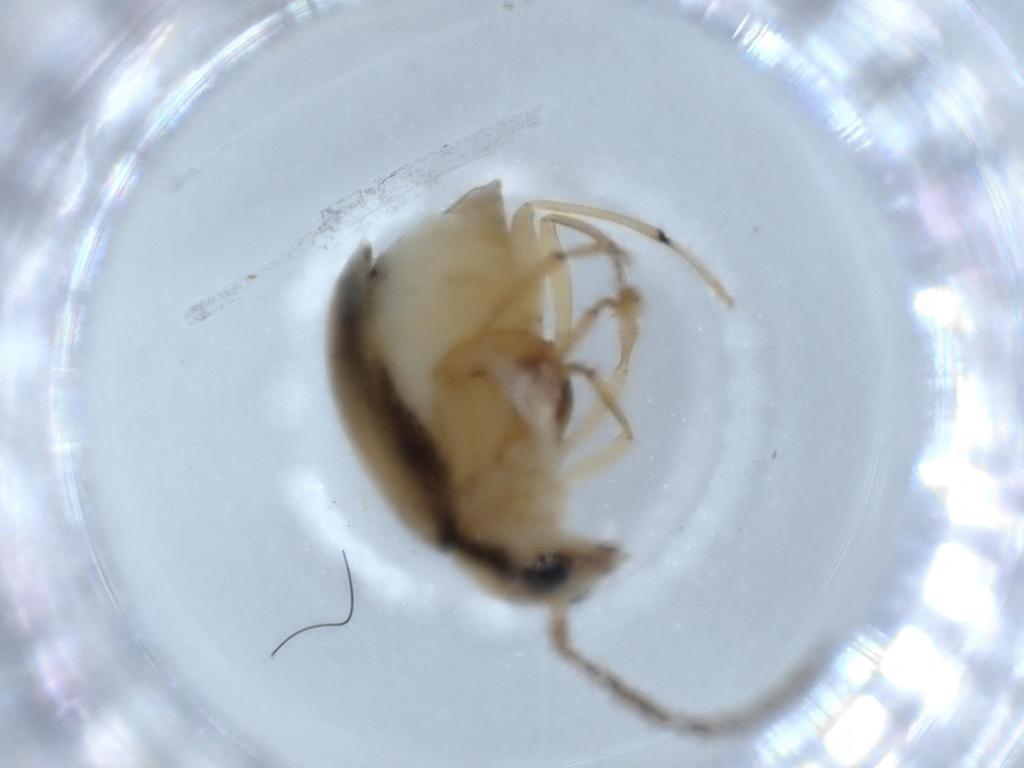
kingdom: Animalia
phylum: Arthropoda
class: Insecta
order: Coleoptera
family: Chrysomelidae
